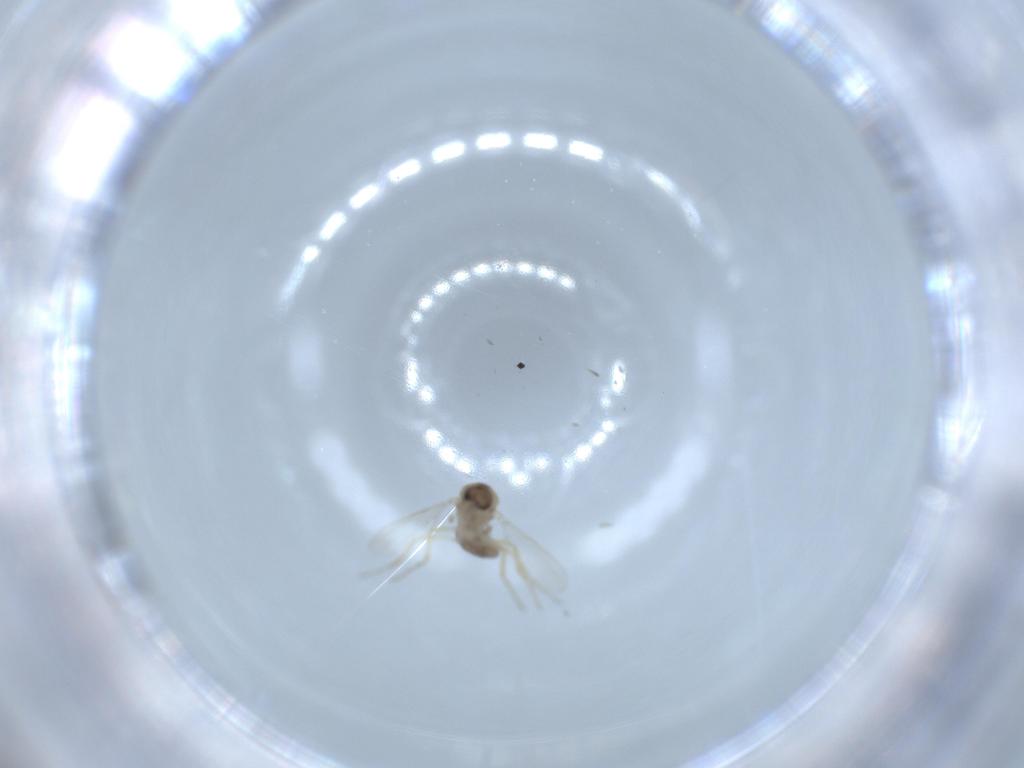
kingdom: Animalia
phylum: Arthropoda
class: Insecta
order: Diptera
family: Ceratopogonidae
